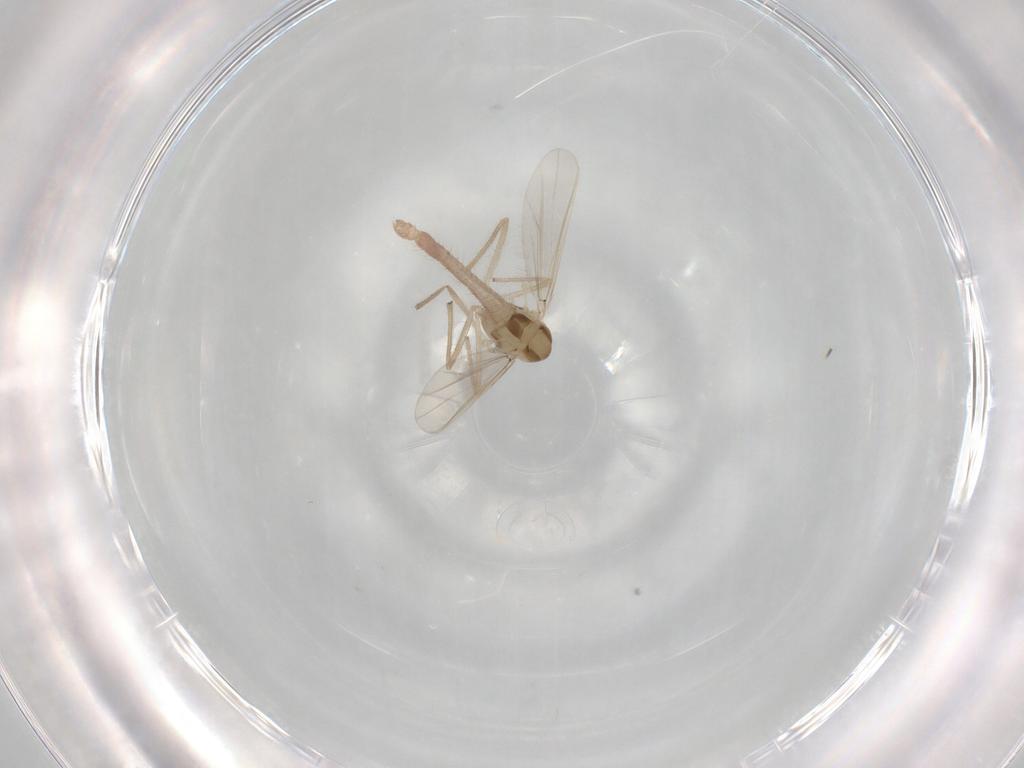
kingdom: Animalia
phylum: Arthropoda
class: Insecta
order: Diptera
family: Chironomidae
